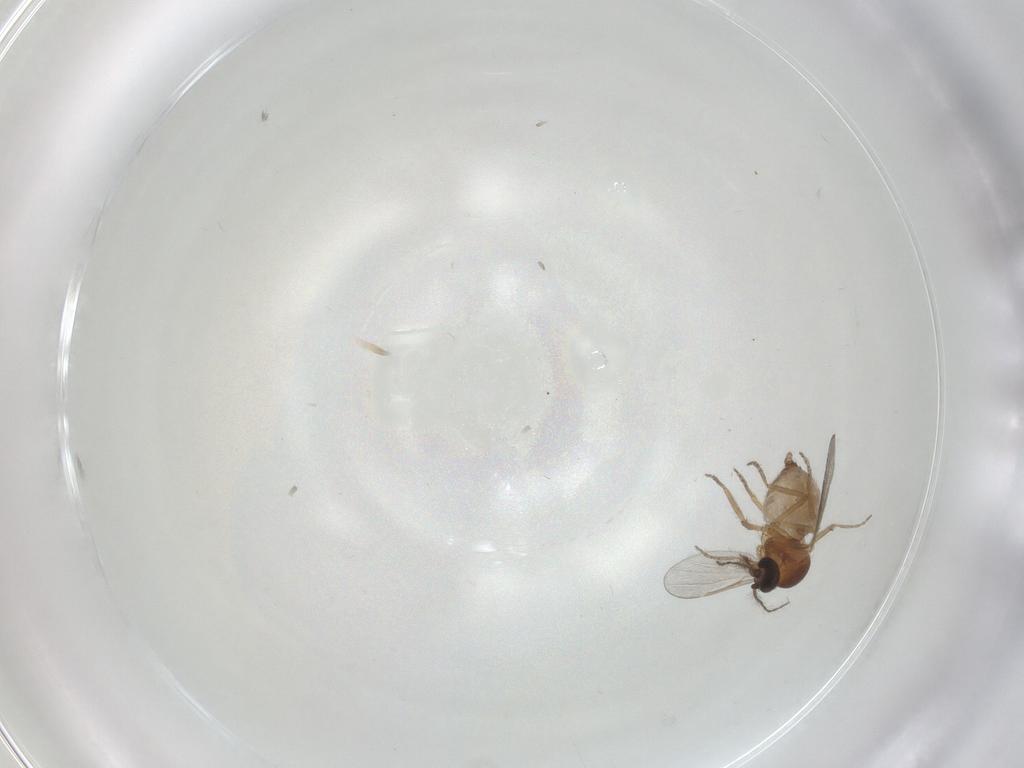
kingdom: Animalia
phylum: Arthropoda
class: Insecta
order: Diptera
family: Ceratopogonidae
